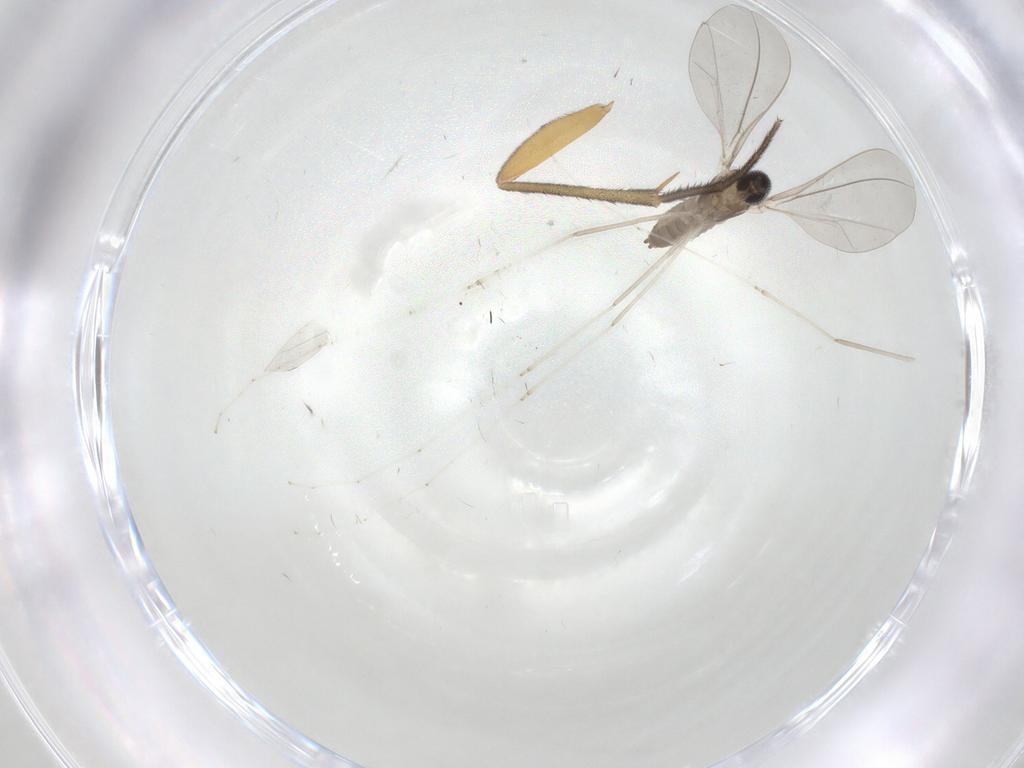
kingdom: Animalia
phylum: Arthropoda
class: Insecta
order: Diptera
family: Mycetophilidae
